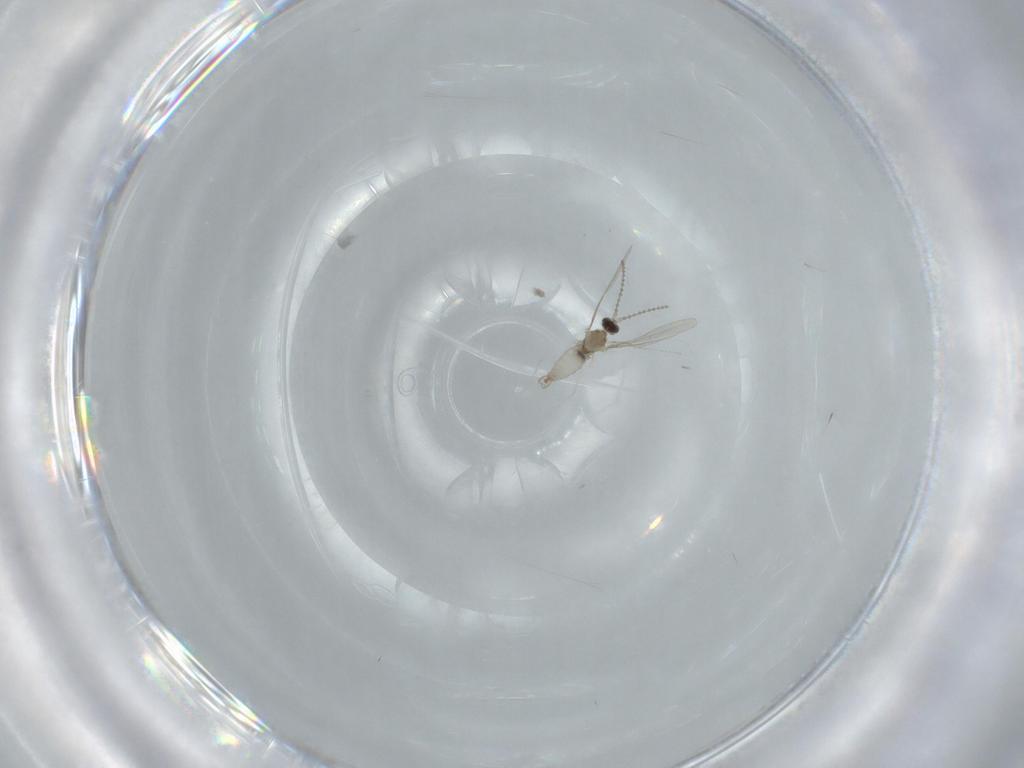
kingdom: Animalia
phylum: Arthropoda
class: Insecta
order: Diptera
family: Cecidomyiidae
